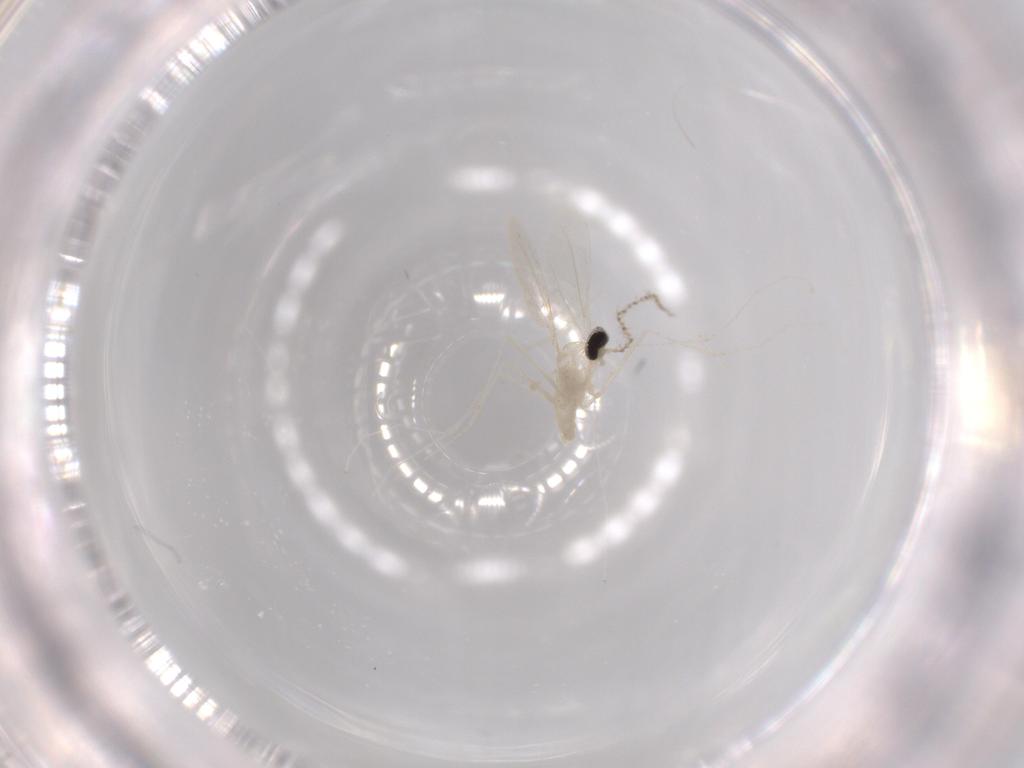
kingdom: Animalia
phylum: Arthropoda
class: Insecta
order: Diptera
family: Cecidomyiidae
